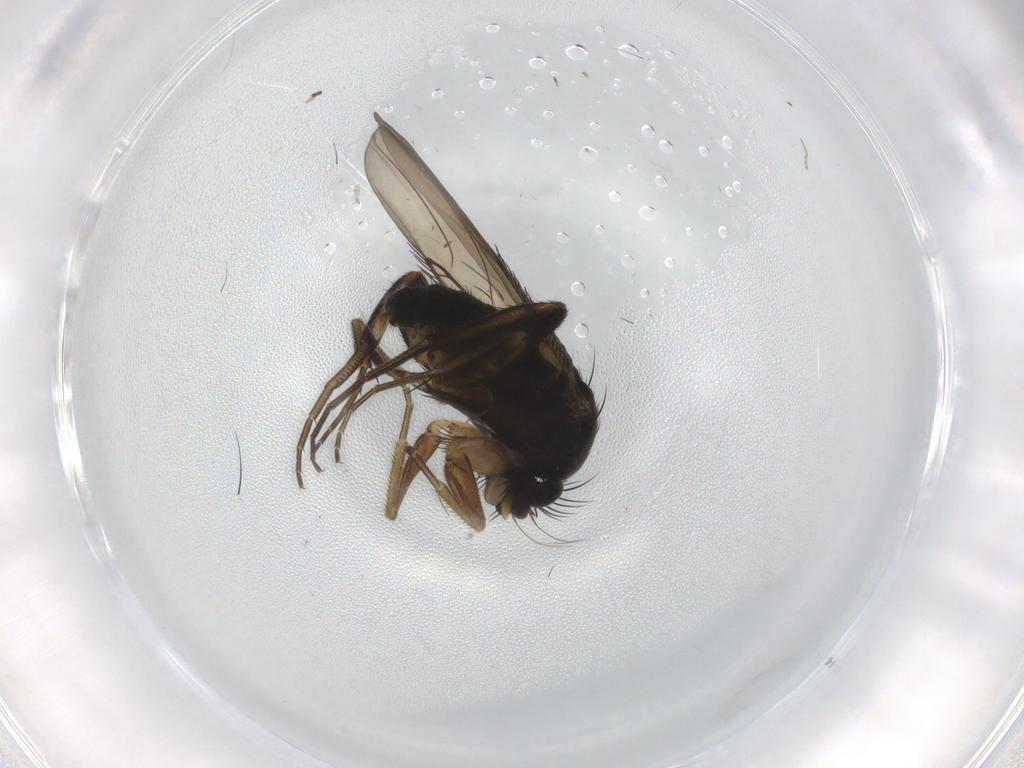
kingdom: Animalia
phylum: Arthropoda
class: Insecta
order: Diptera
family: Phoridae
